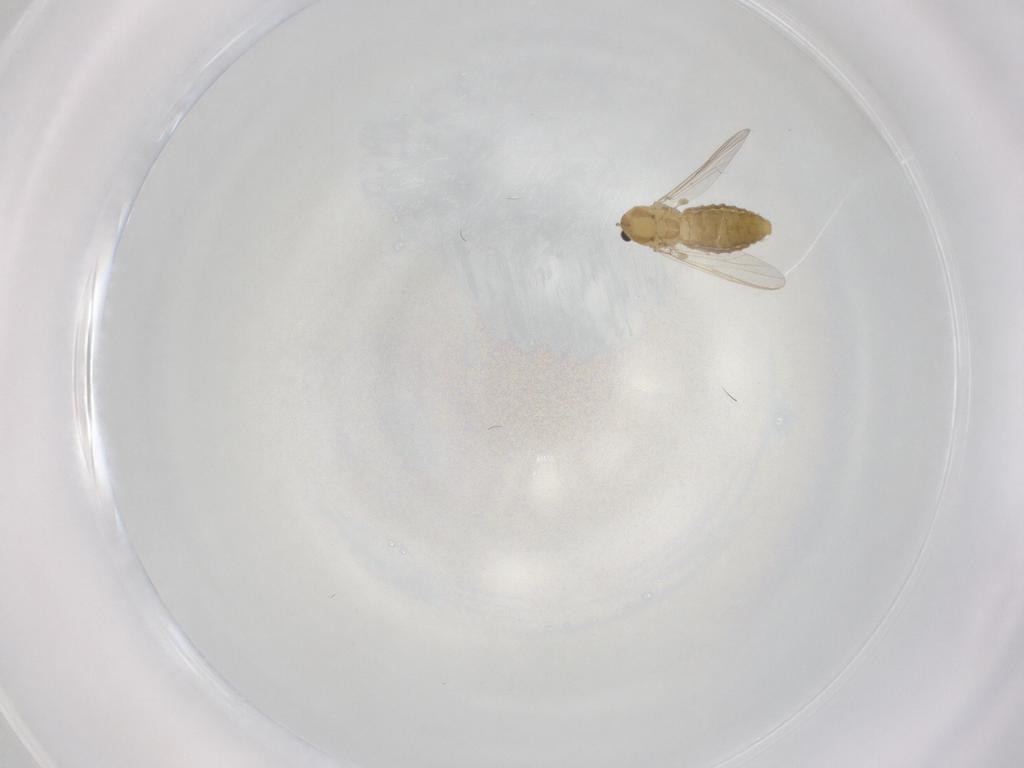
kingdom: Animalia
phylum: Arthropoda
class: Insecta
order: Diptera
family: Chironomidae
